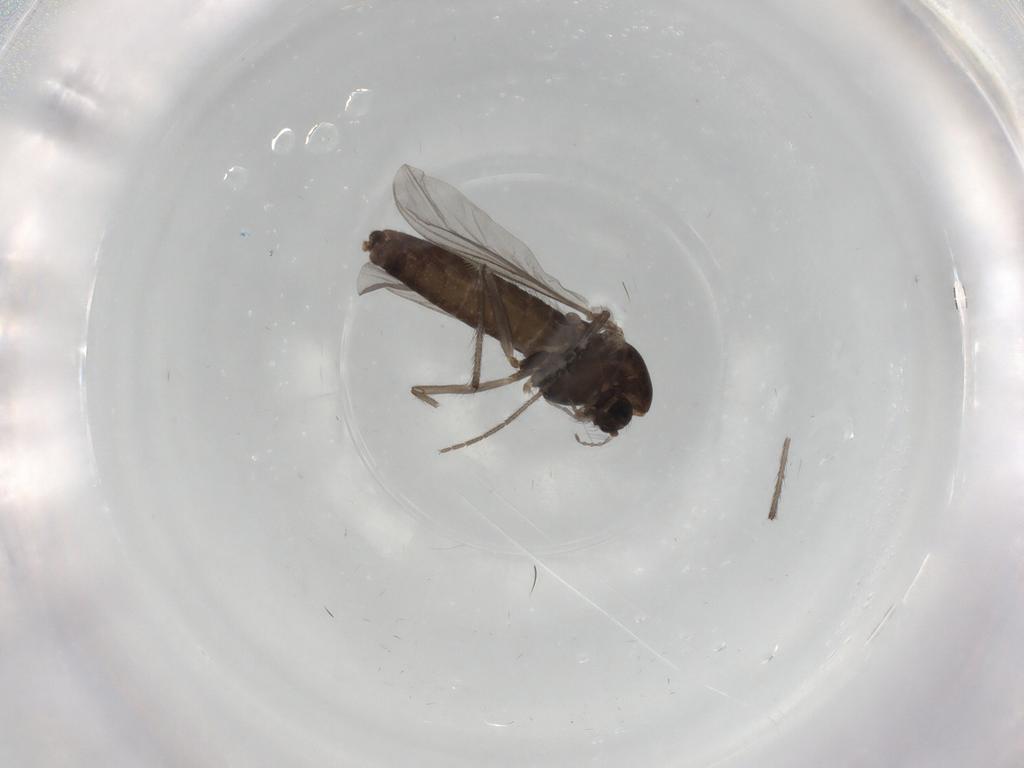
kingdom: Animalia
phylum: Arthropoda
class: Insecta
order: Diptera
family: Chironomidae
